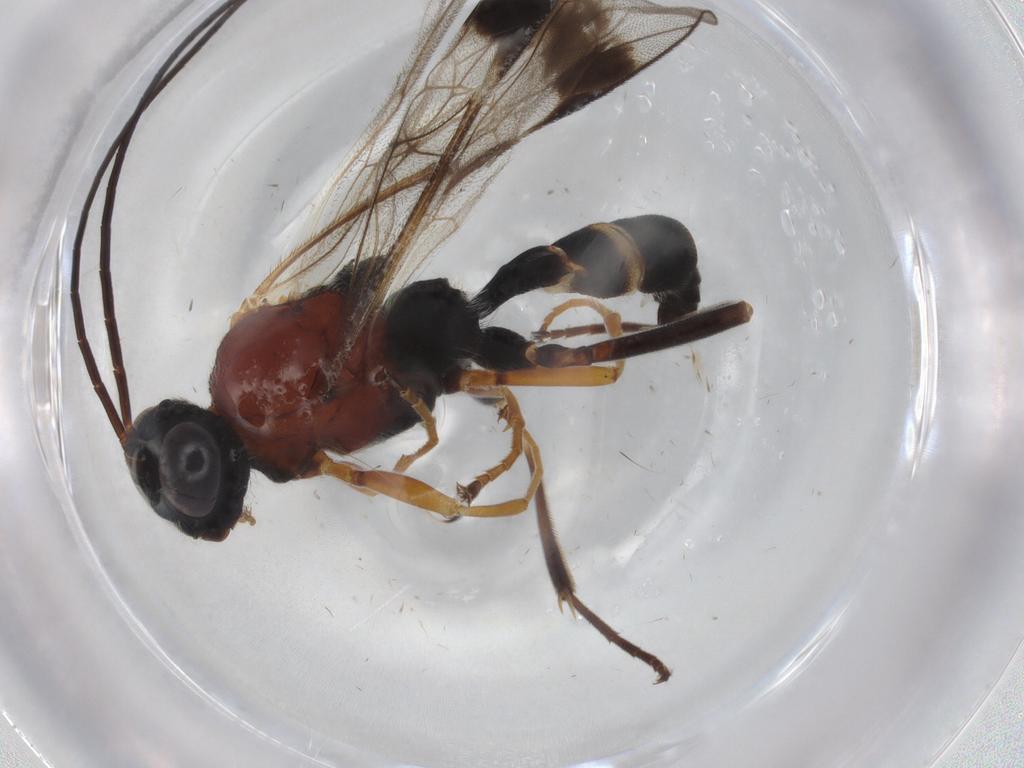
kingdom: Animalia
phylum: Arthropoda
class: Insecta
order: Hymenoptera
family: Ichneumonidae
